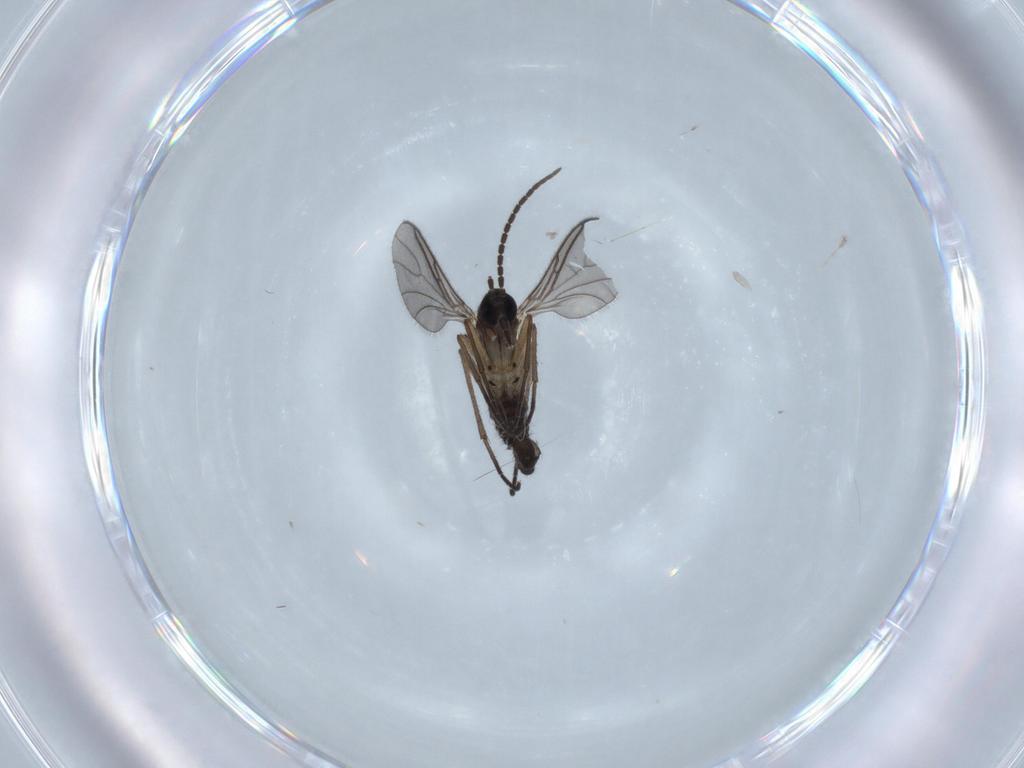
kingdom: Animalia
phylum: Arthropoda
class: Insecta
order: Diptera
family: Sciaridae
